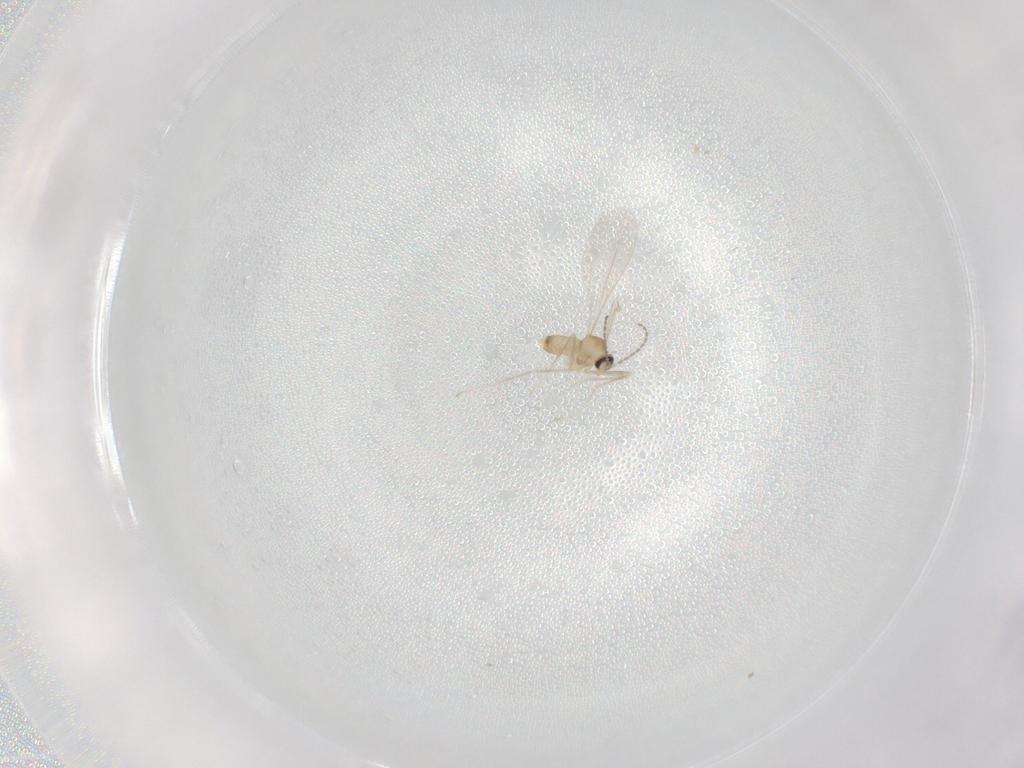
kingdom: Animalia
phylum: Arthropoda
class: Insecta
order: Diptera
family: Cecidomyiidae
